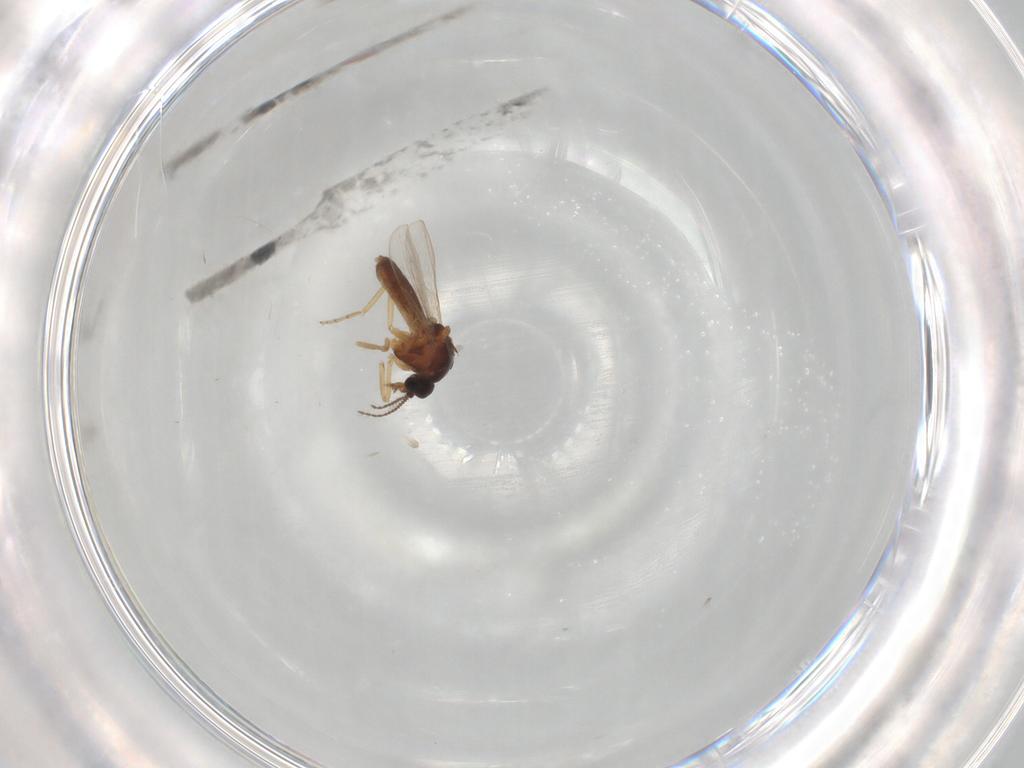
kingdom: Animalia
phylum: Arthropoda
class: Insecta
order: Diptera
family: Ceratopogonidae
